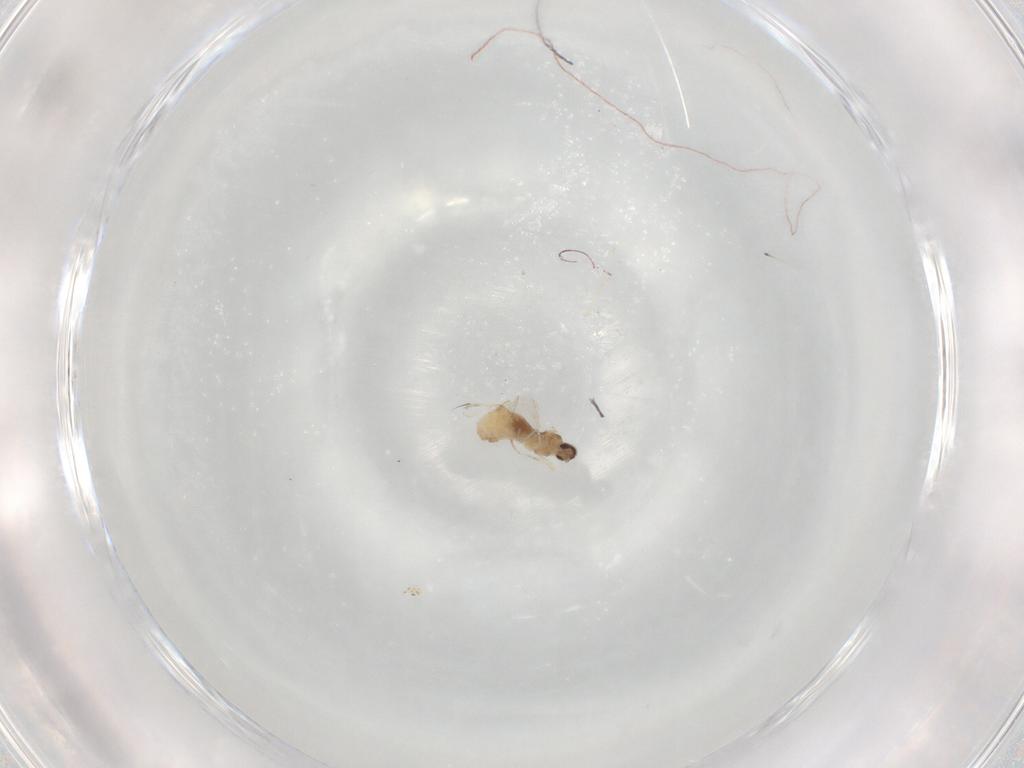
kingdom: Animalia
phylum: Arthropoda
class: Insecta
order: Diptera
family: Cecidomyiidae
